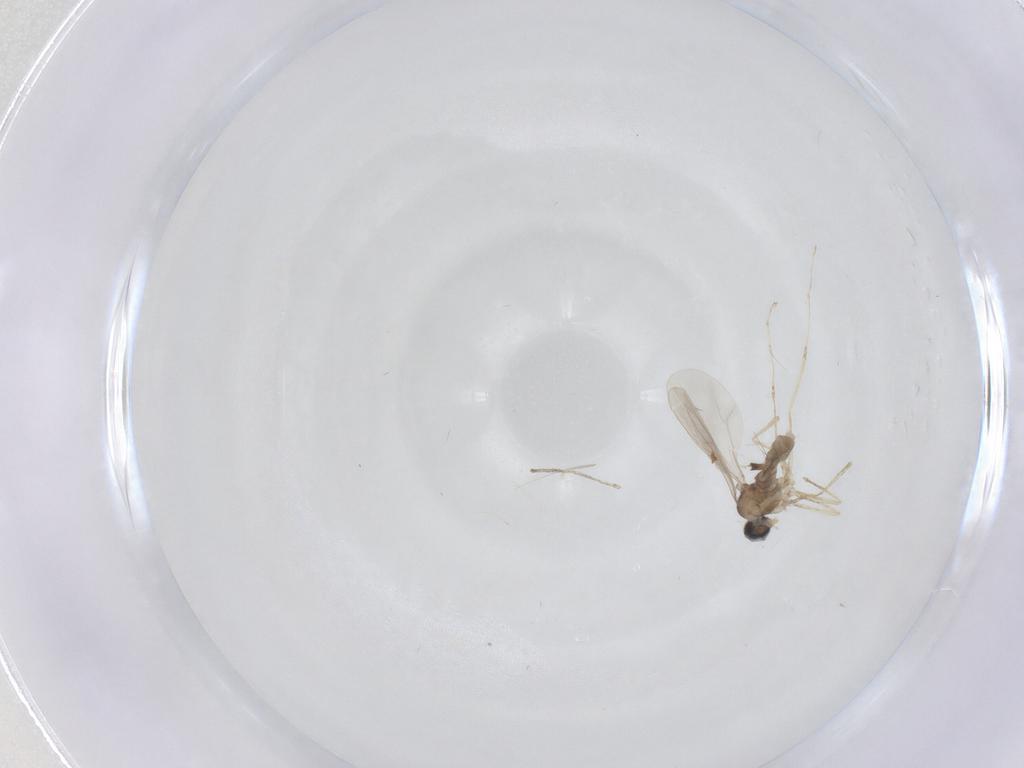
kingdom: Animalia
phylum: Arthropoda
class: Insecta
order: Diptera
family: Cecidomyiidae
